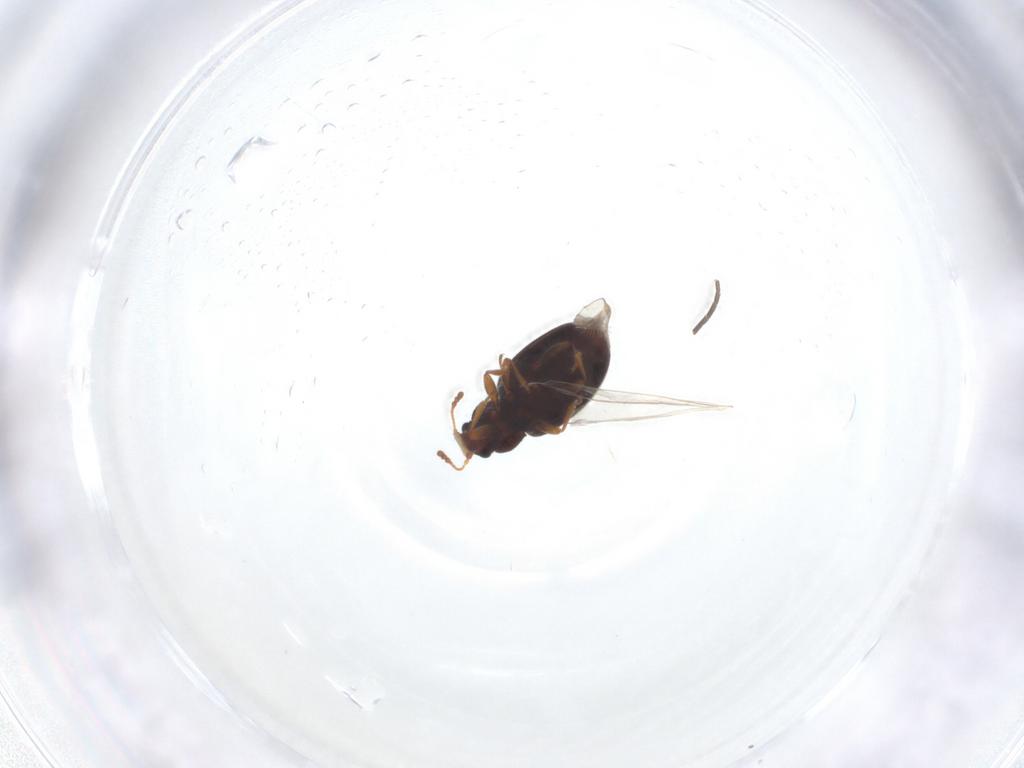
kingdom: Animalia
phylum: Arthropoda
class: Insecta
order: Coleoptera
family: Latridiidae
